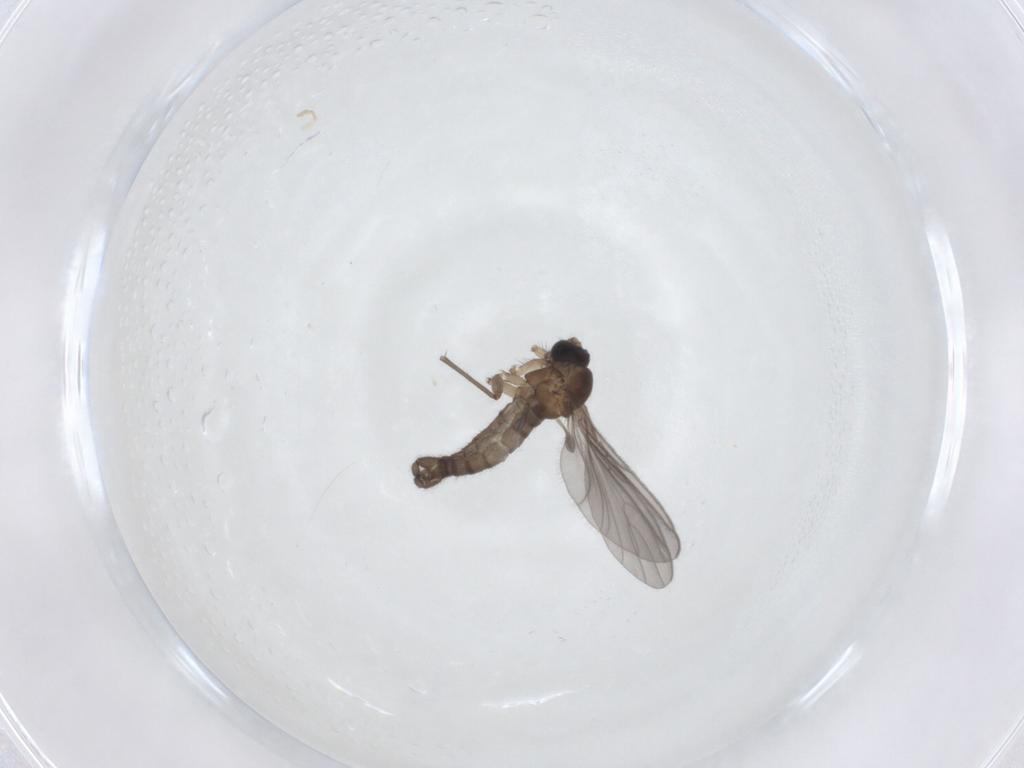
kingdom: Animalia
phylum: Arthropoda
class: Insecta
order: Diptera
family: Sciaridae
